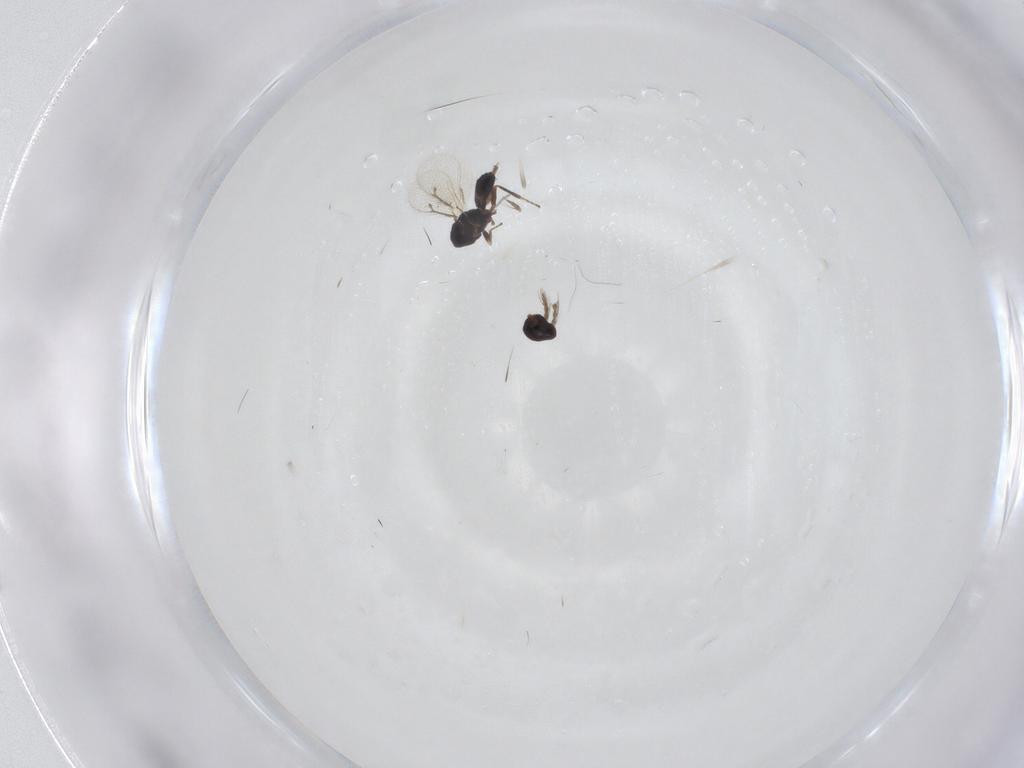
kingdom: Animalia
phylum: Arthropoda
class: Insecta
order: Hymenoptera
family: Eulophidae
